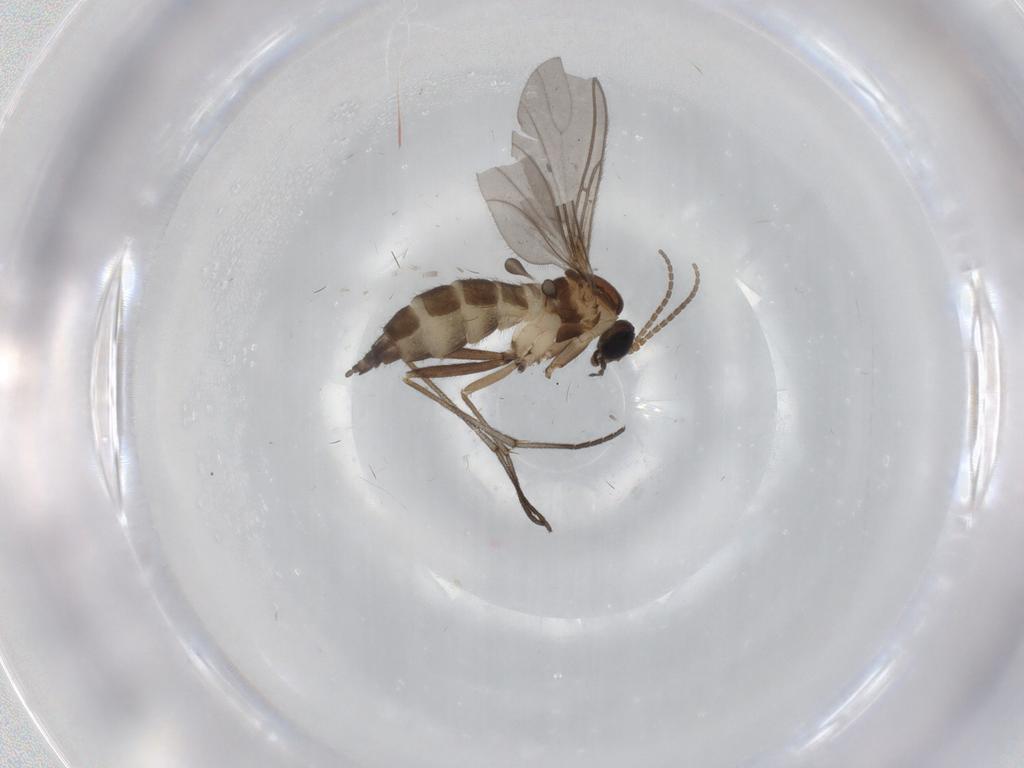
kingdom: Animalia
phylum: Arthropoda
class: Insecta
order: Diptera
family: Sciaridae
